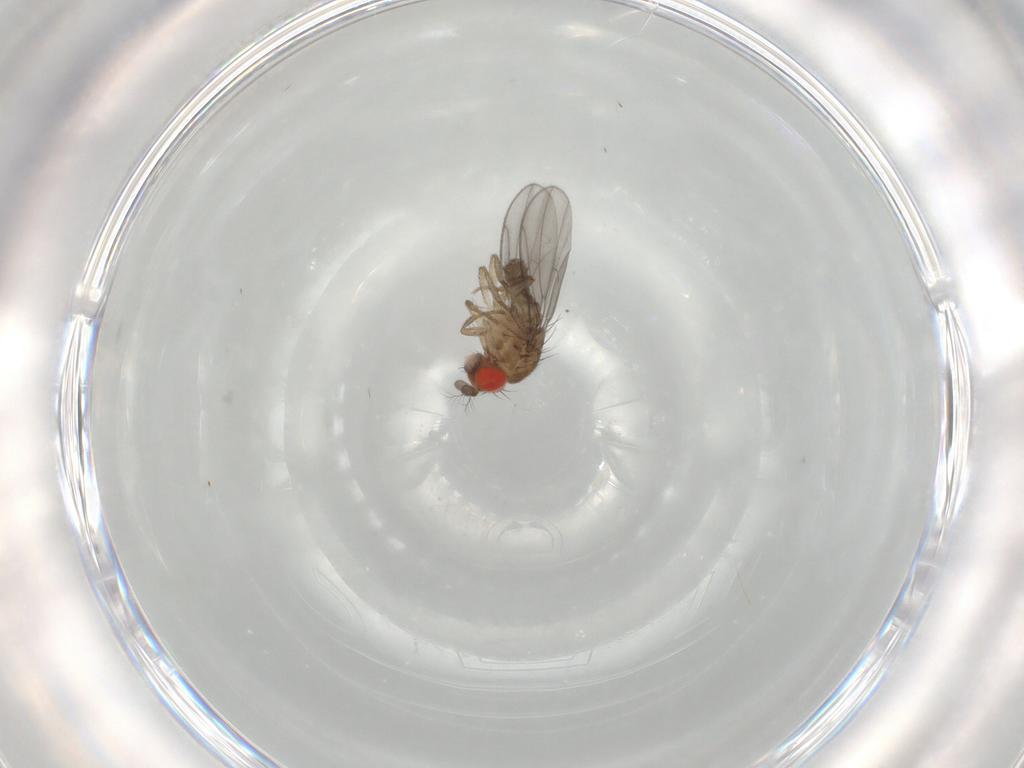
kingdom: Animalia
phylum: Arthropoda
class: Insecta
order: Diptera
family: Drosophilidae
